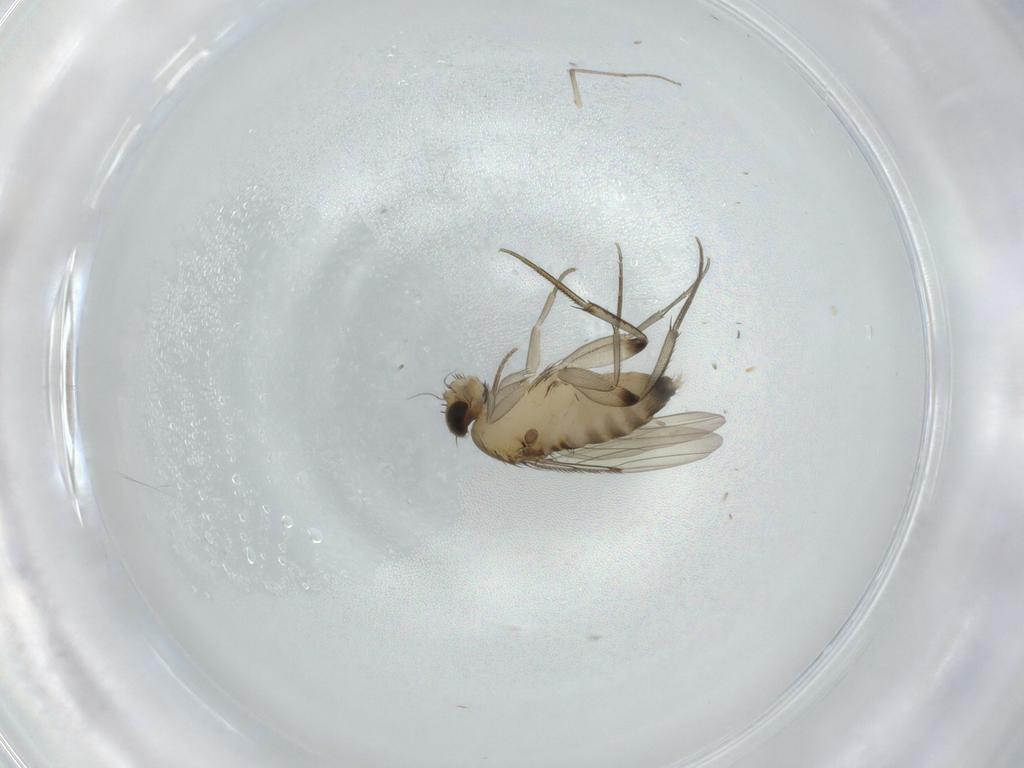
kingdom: Animalia
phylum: Arthropoda
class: Insecta
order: Diptera
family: Phoridae
